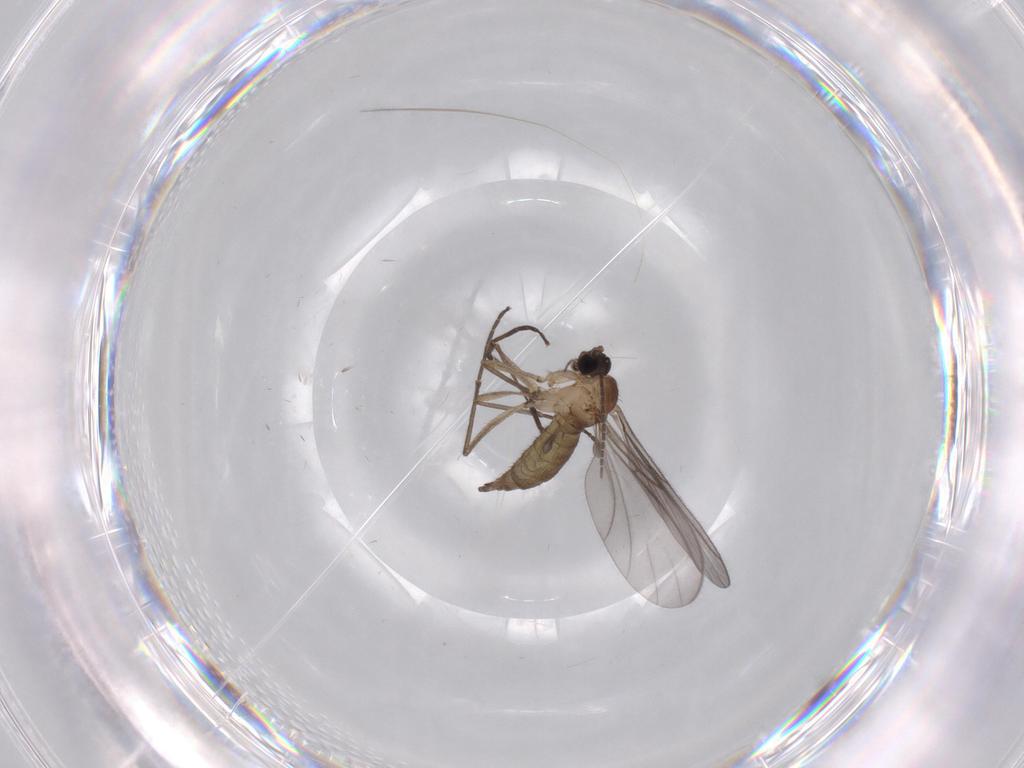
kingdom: Animalia
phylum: Arthropoda
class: Insecta
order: Diptera
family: Sciaridae
